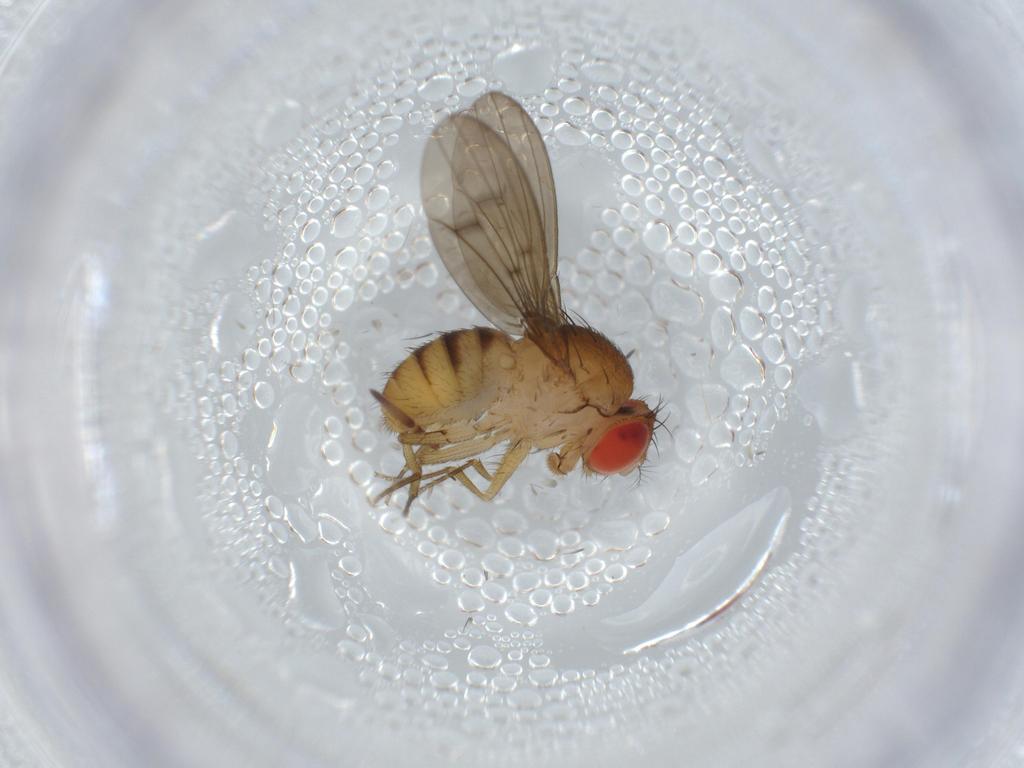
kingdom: Animalia
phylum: Arthropoda
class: Insecta
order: Diptera
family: Drosophilidae
